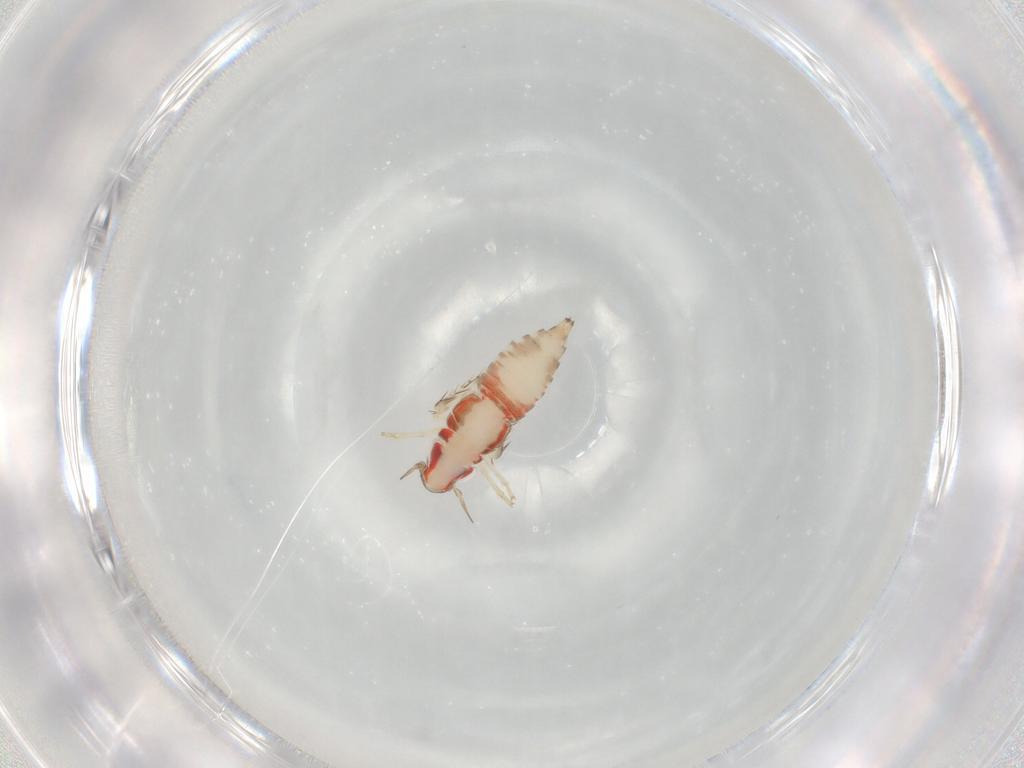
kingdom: Animalia
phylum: Arthropoda
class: Insecta
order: Hemiptera
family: Cicadellidae
